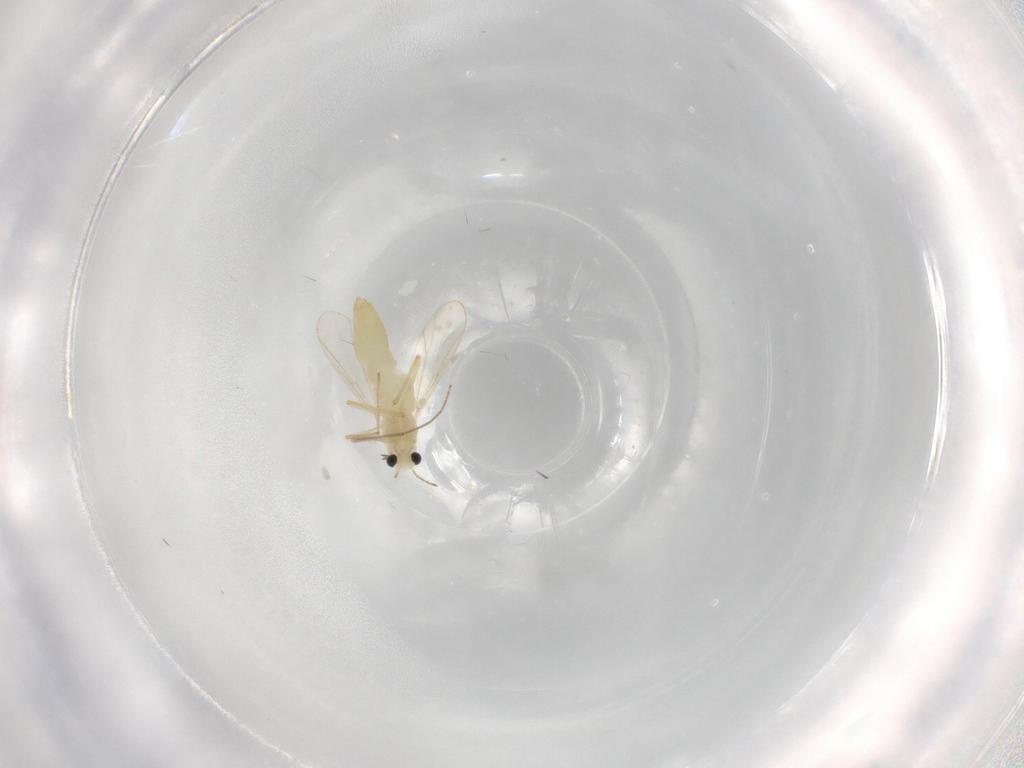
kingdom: Animalia
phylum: Arthropoda
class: Insecta
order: Diptera
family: Chironomidae
